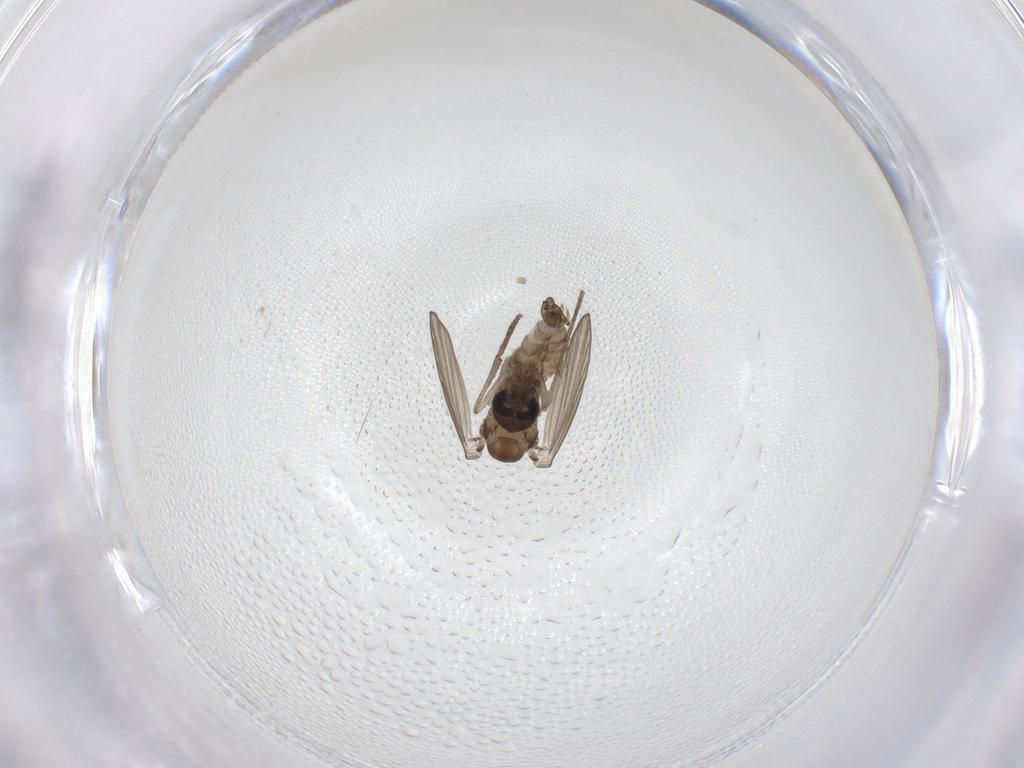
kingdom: Animalia
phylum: Arthropoda
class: Insecta
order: Diptera
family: Psychodidae
